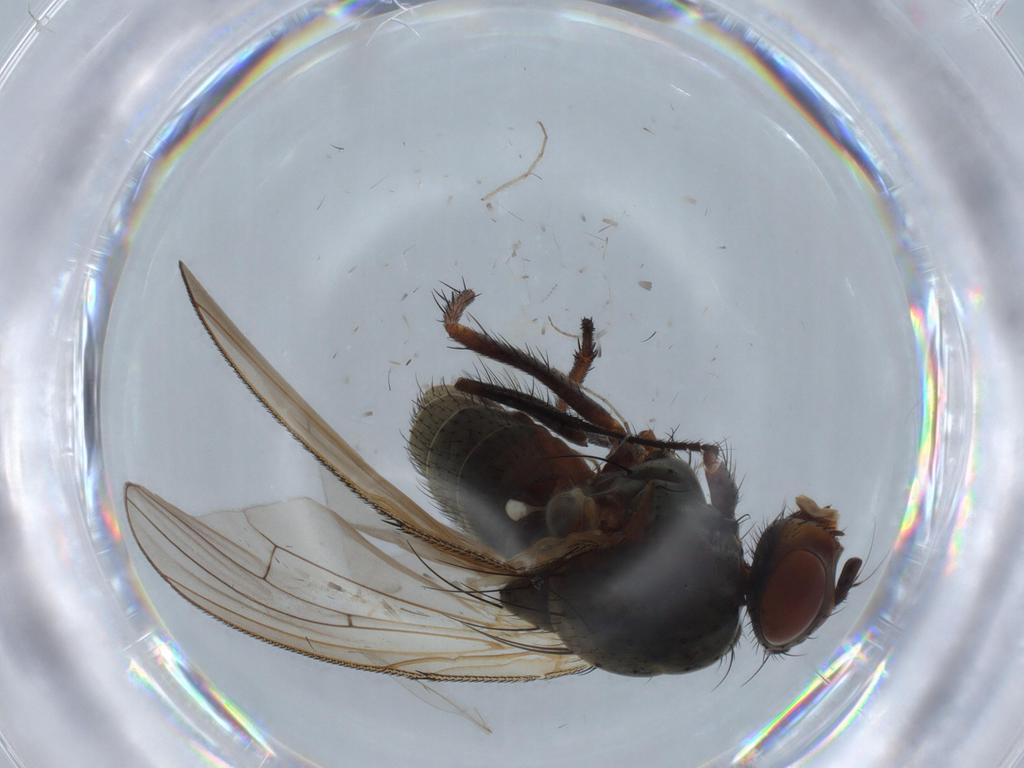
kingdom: Animalia
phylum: Arthropoda
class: Insecta
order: Diptera
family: Anthomyiidae
